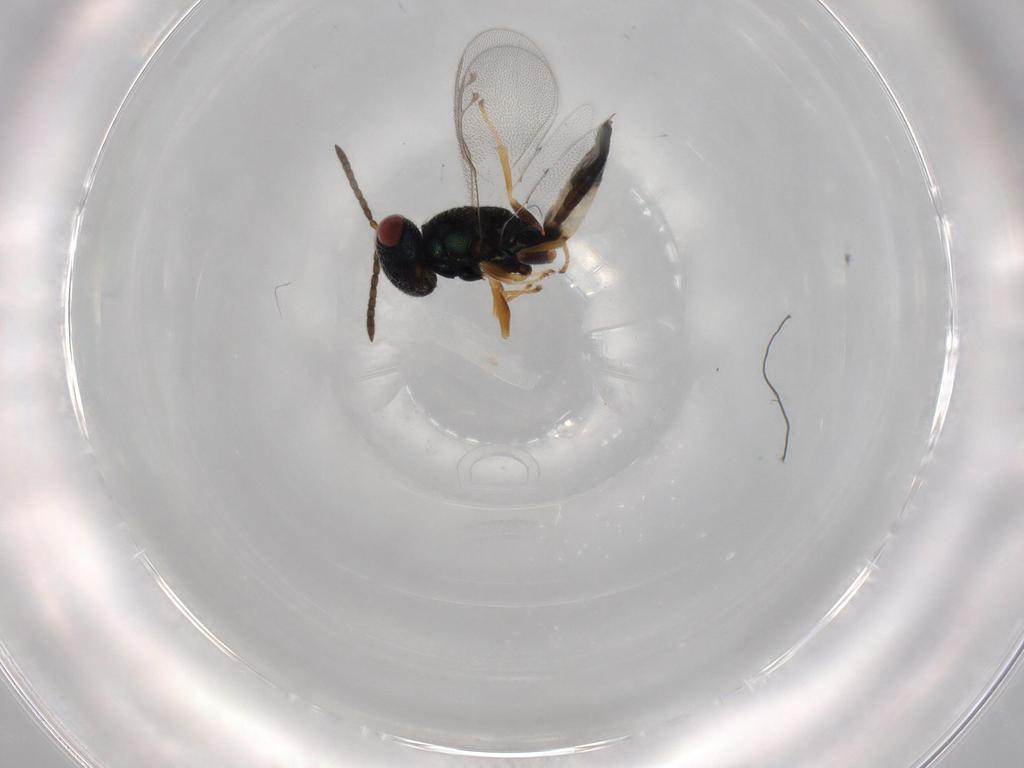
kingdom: Animalia
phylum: Arthropoda
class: Insecta
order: Hymenoptera
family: Pteromalidae
